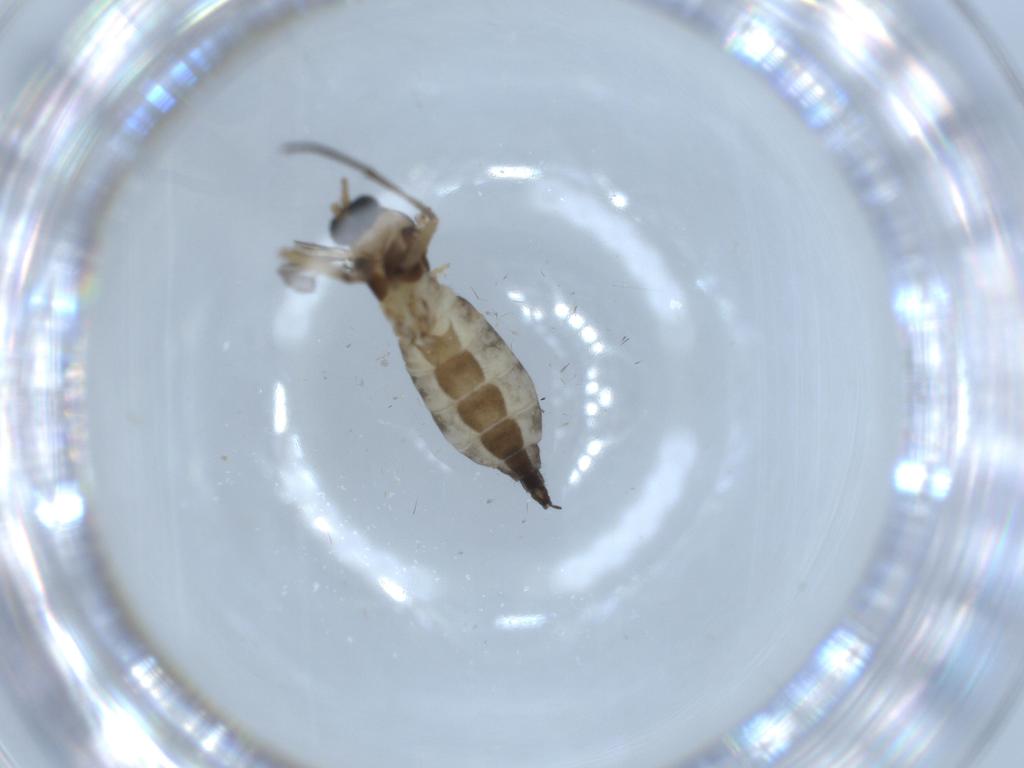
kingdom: Animalia
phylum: Arthropoda
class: Insecta
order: Diptera
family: Sciaridae
